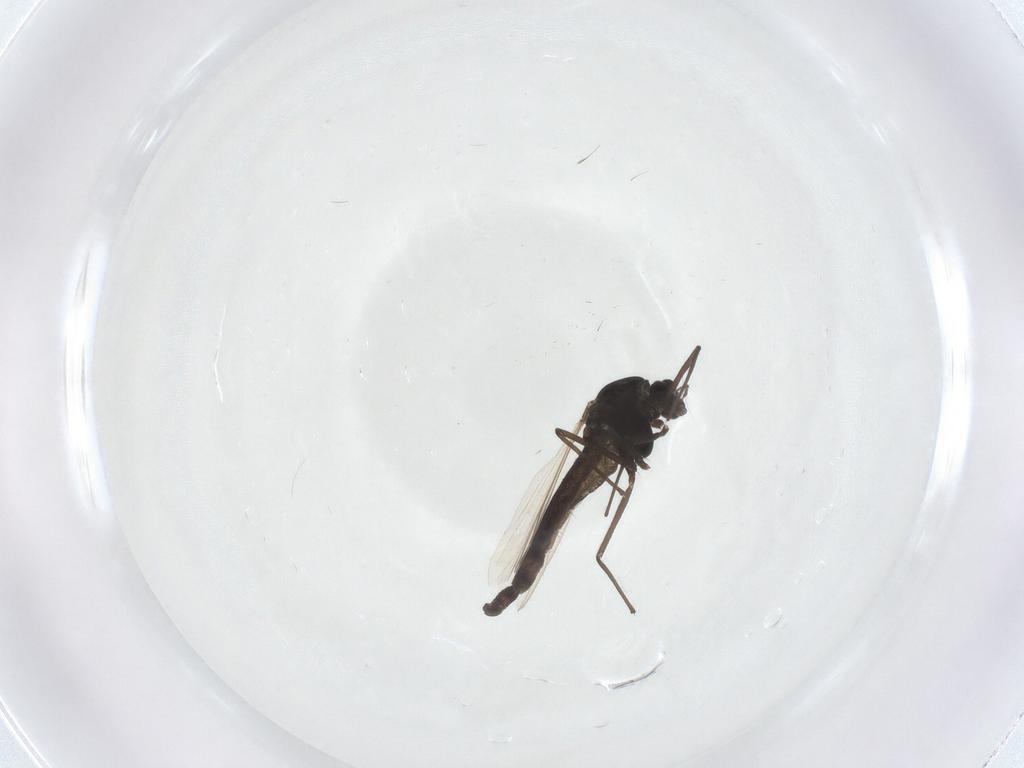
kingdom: Animalia
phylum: Arthropoda
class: Insecta
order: Diptera
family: Chironomidae
